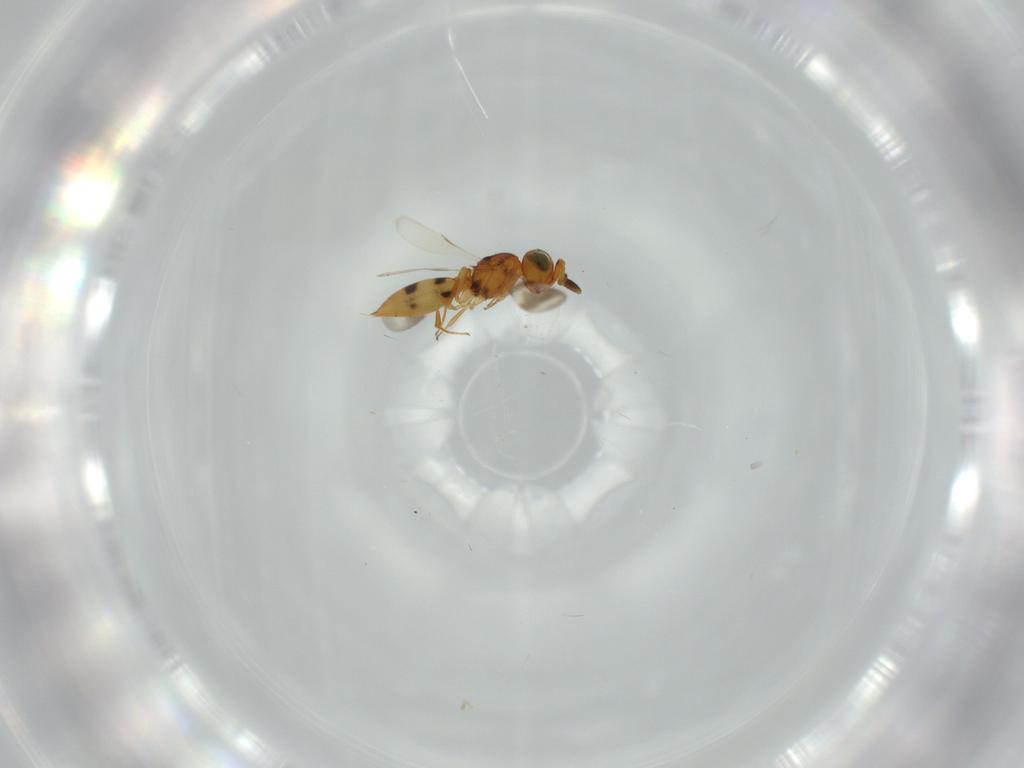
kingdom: Animalia
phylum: Arthropoda
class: Insecta
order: Hymenoptera
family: Scelionidae
